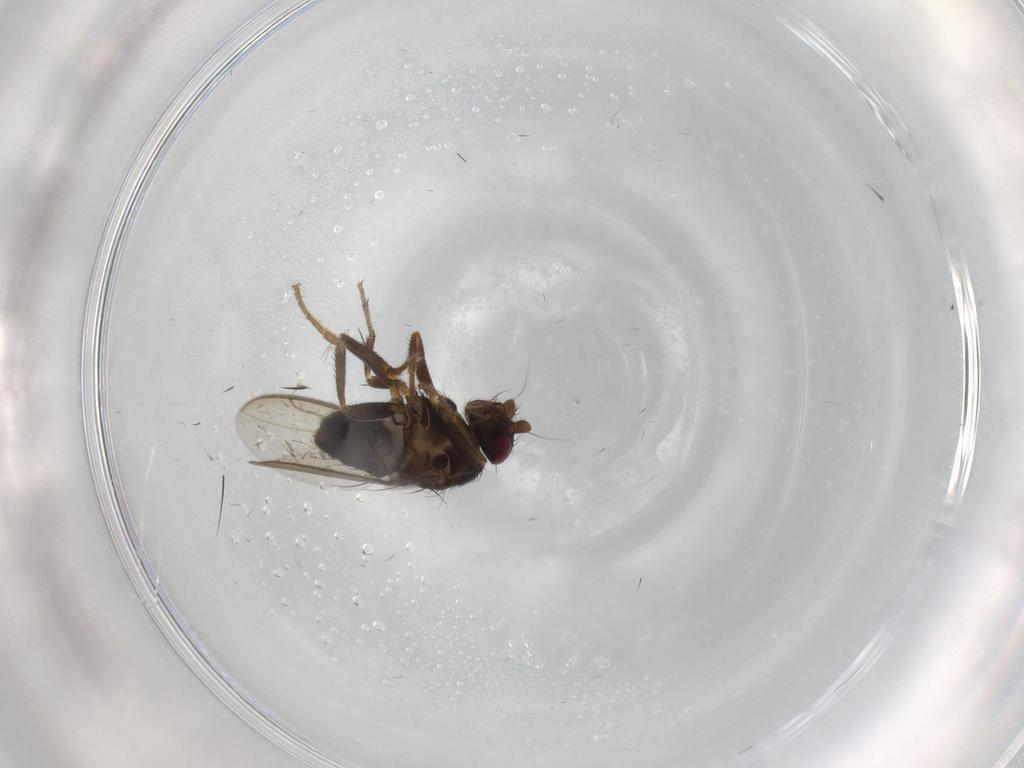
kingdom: Animalia
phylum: Arthropoda
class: Insecta
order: Diptera
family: Sphaeroceridae
